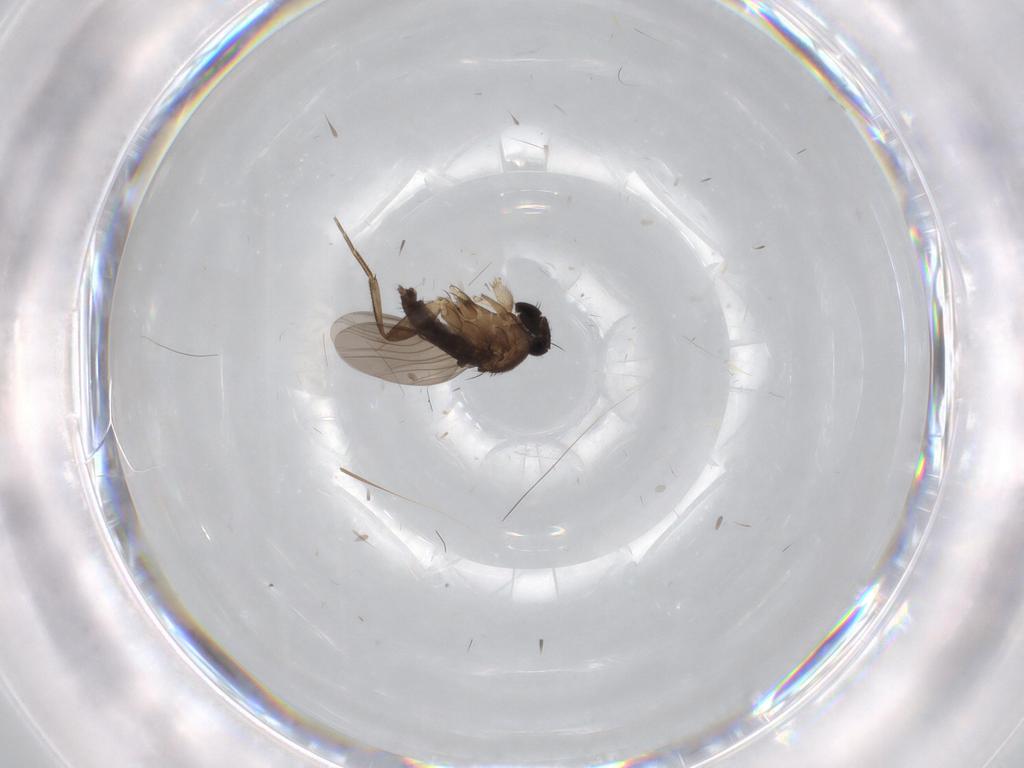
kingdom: Animalia
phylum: Arthropoda
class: Insecta
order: Diptera
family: Phoridae
